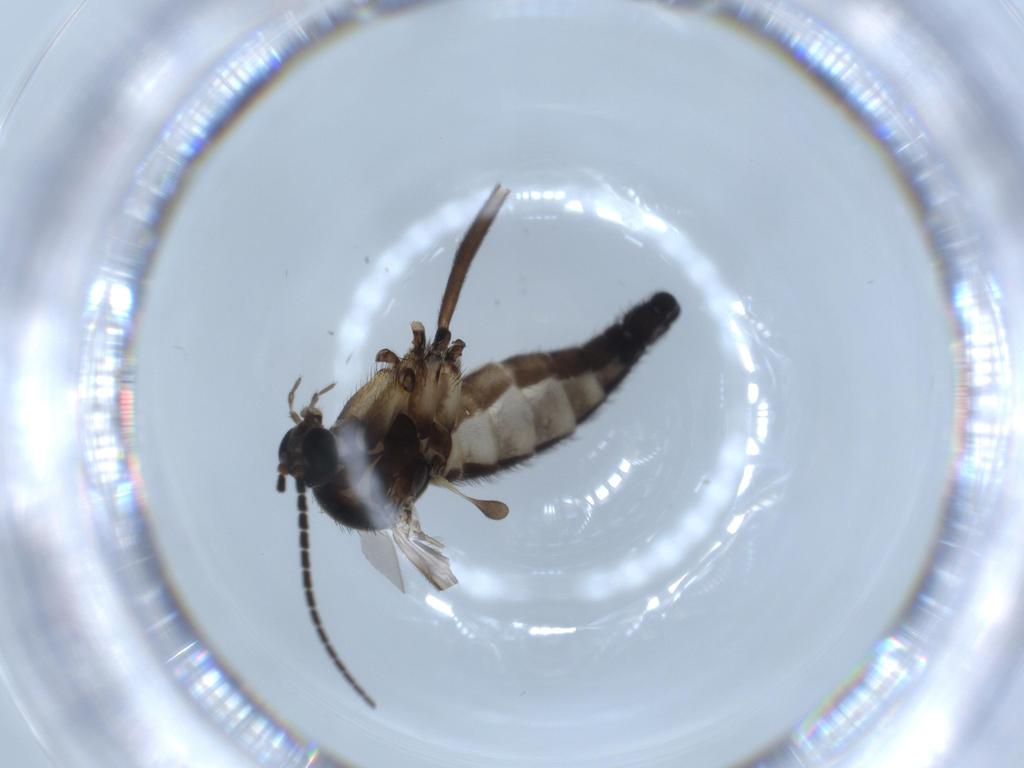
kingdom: Animalia
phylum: Arthropoda
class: Insecta
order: Diptera
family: Sciaridae
